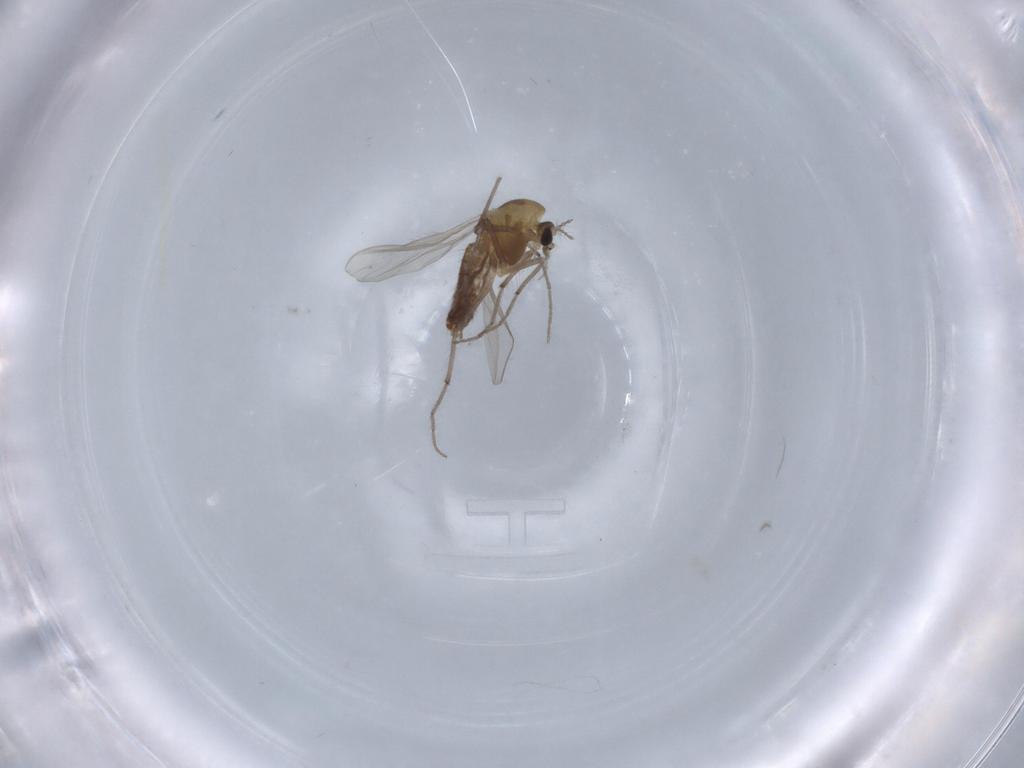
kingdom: Animalia
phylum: Arthropoda
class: Insecta
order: Diptera
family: Chironomidae
